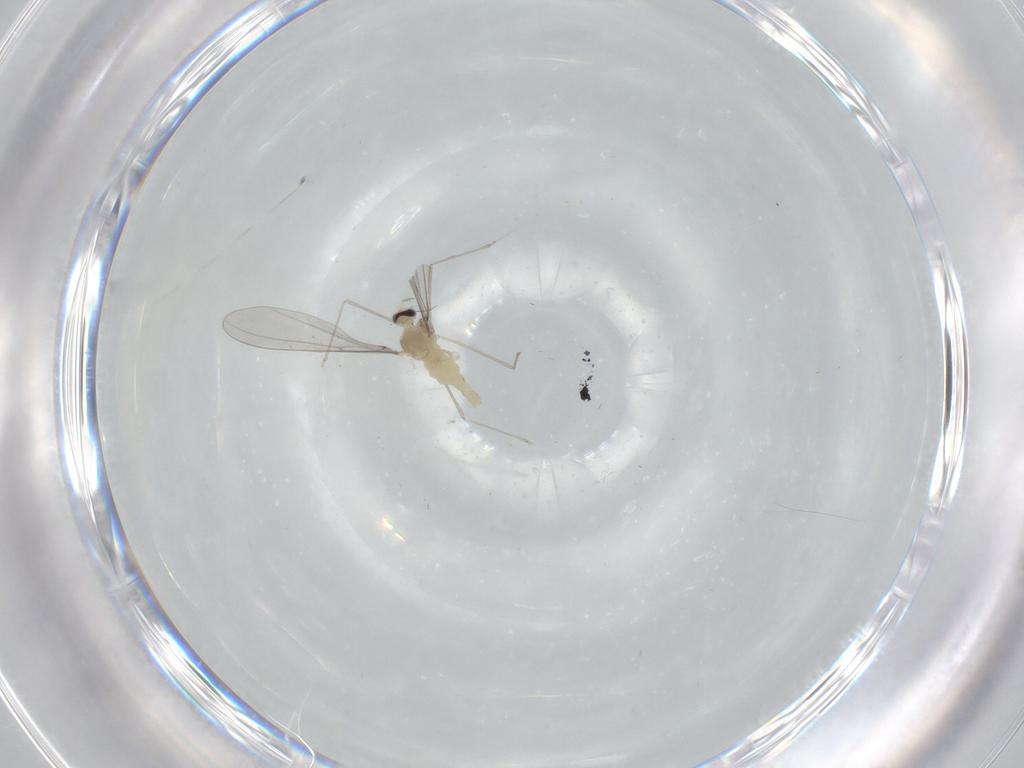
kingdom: Animalia
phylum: Arthropoda
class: Insecta
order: Diptera
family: Cecidomyiidae
